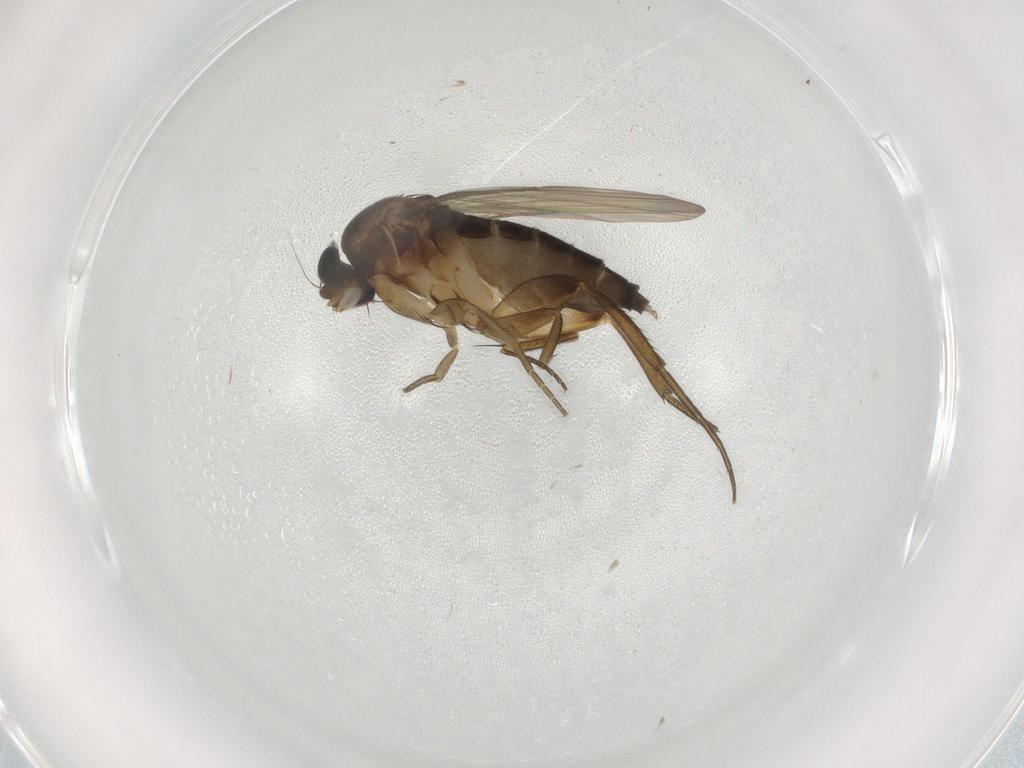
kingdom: Animalia
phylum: Arthropoda
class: Insecta
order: Diptera
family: Phoridae
